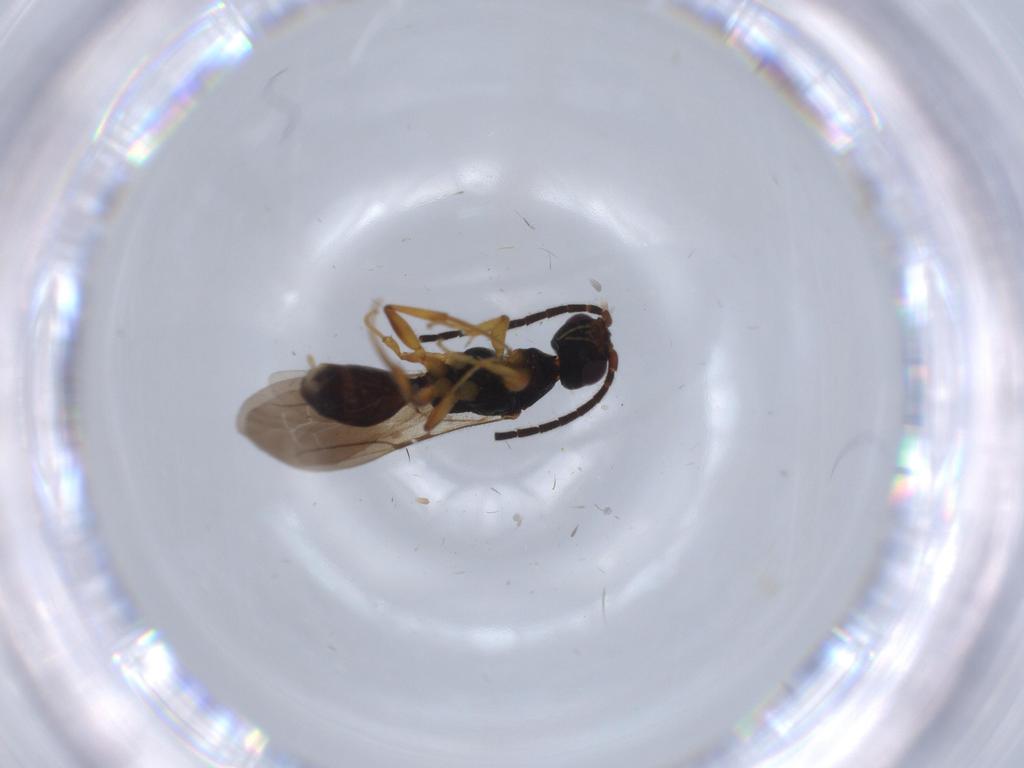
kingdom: Animalia
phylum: Arthropoda
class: Insecta
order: Hymenoptera
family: Bethylidae
